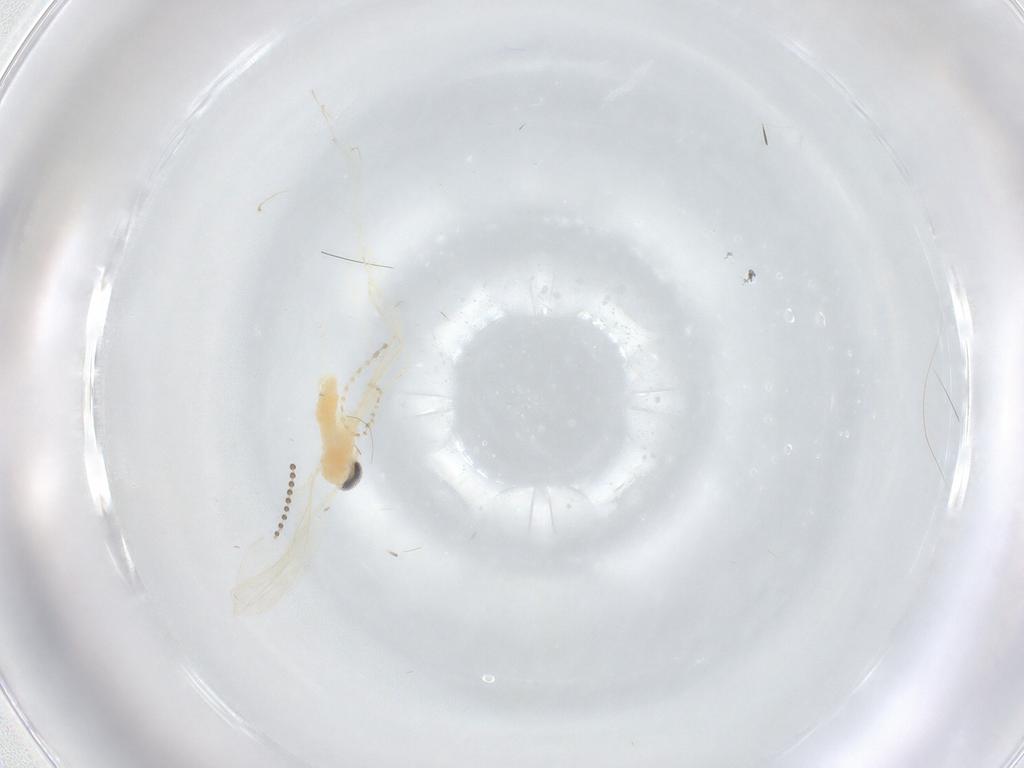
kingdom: Animalia
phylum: Arthropoda
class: Insecta
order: Diptera
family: Cecidomyiidae
